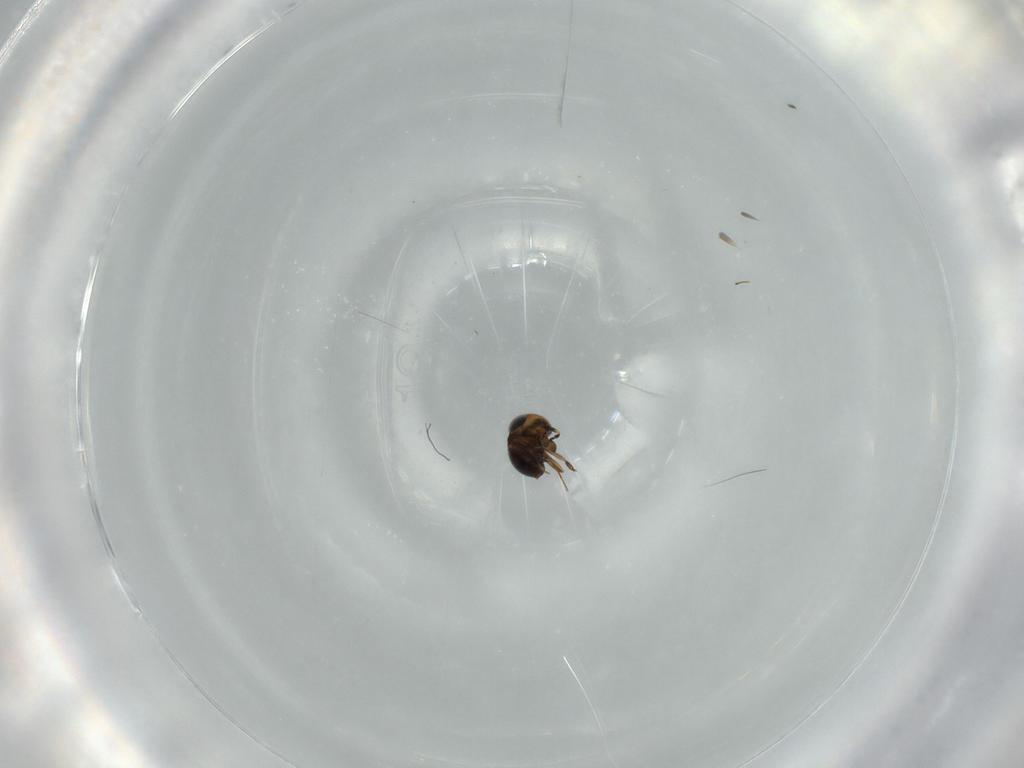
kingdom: Animalia
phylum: Arthropoda
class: Insecta
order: Hymenoptera
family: Scelionidae
